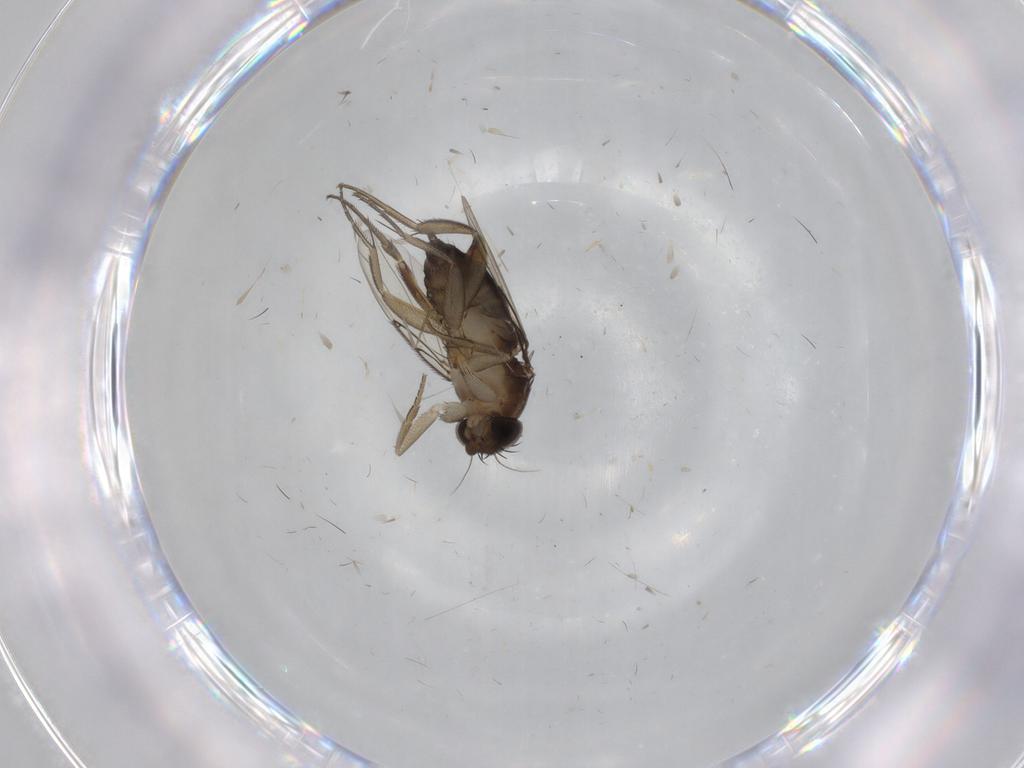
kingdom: Animalia
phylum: Arthropoda
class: Insecta
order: Diptera
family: Phoridae
